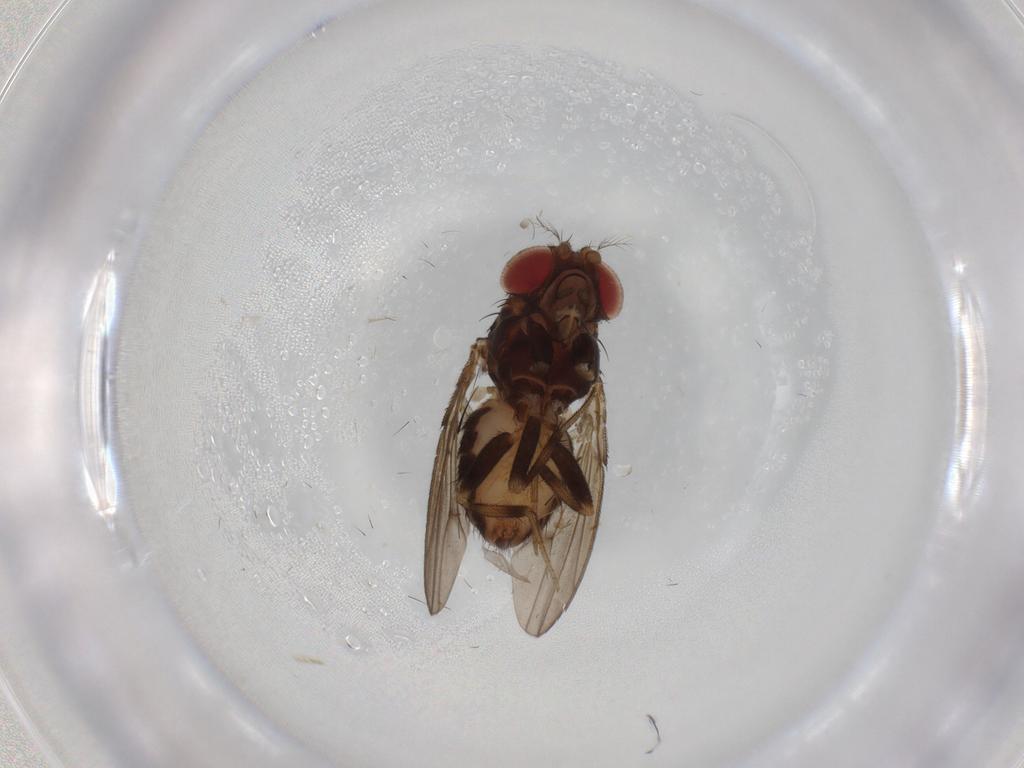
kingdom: Animalia
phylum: Arthropoda
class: Insecta
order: Diptera
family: Drosophilidae
